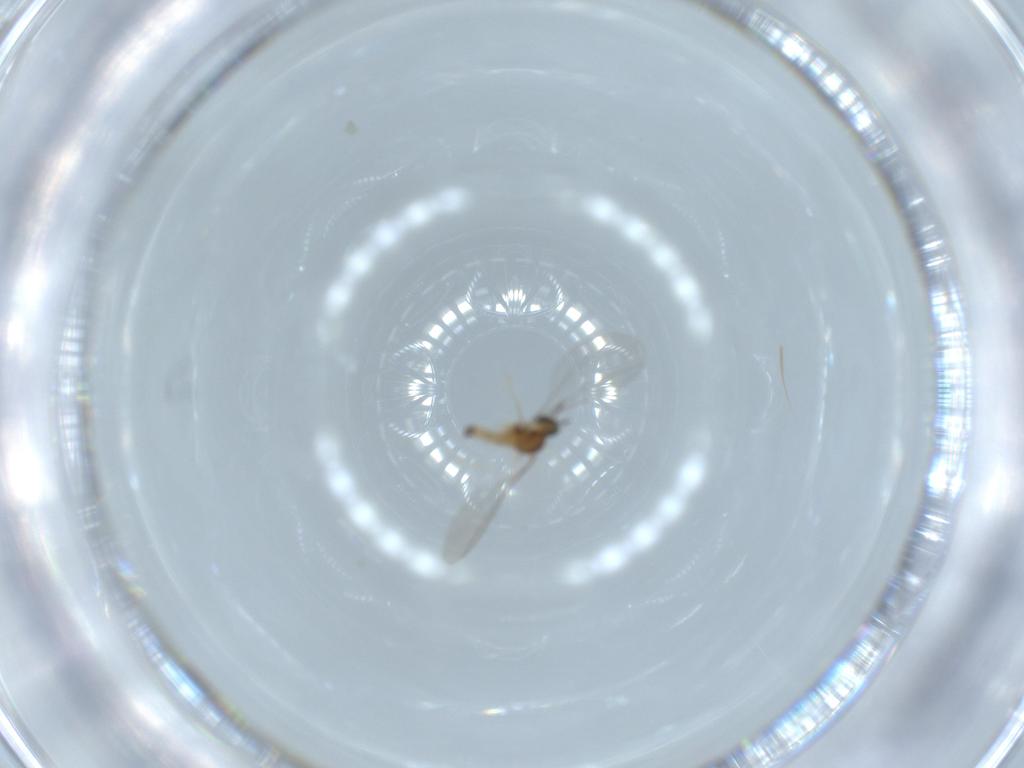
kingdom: Animalia
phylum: Arthropoda
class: Insecta
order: Diptera
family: Cecidomyiidae
